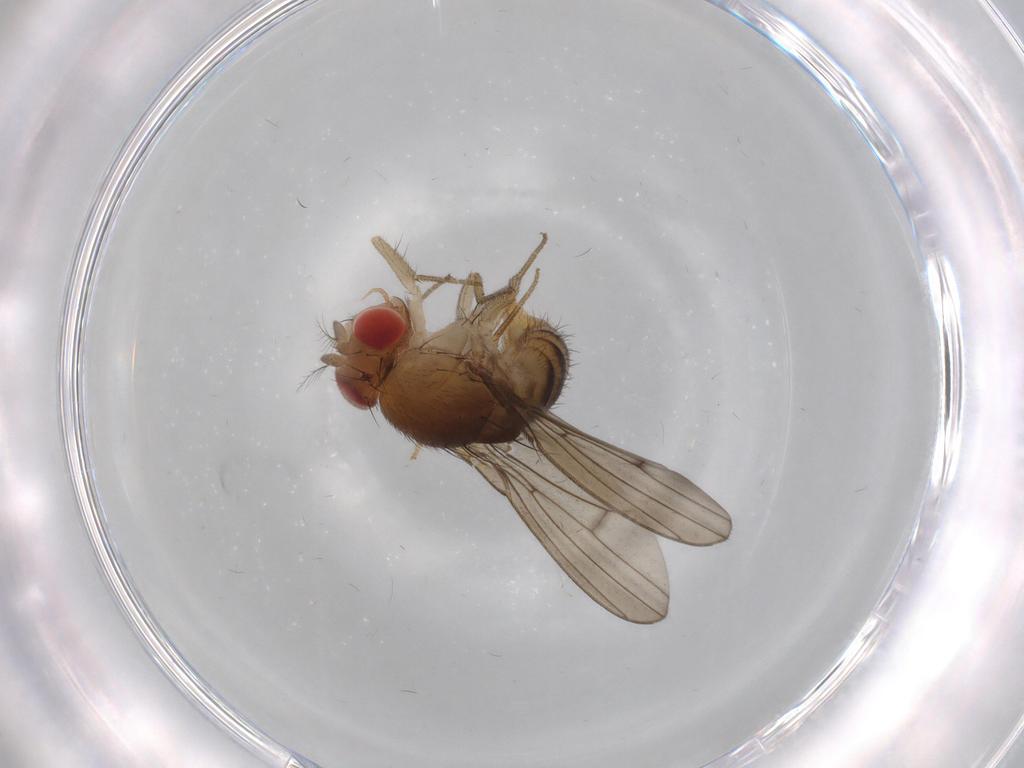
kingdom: Animalia
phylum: Arthropoda
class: Insecta
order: Diptera
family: Drosophilidae
